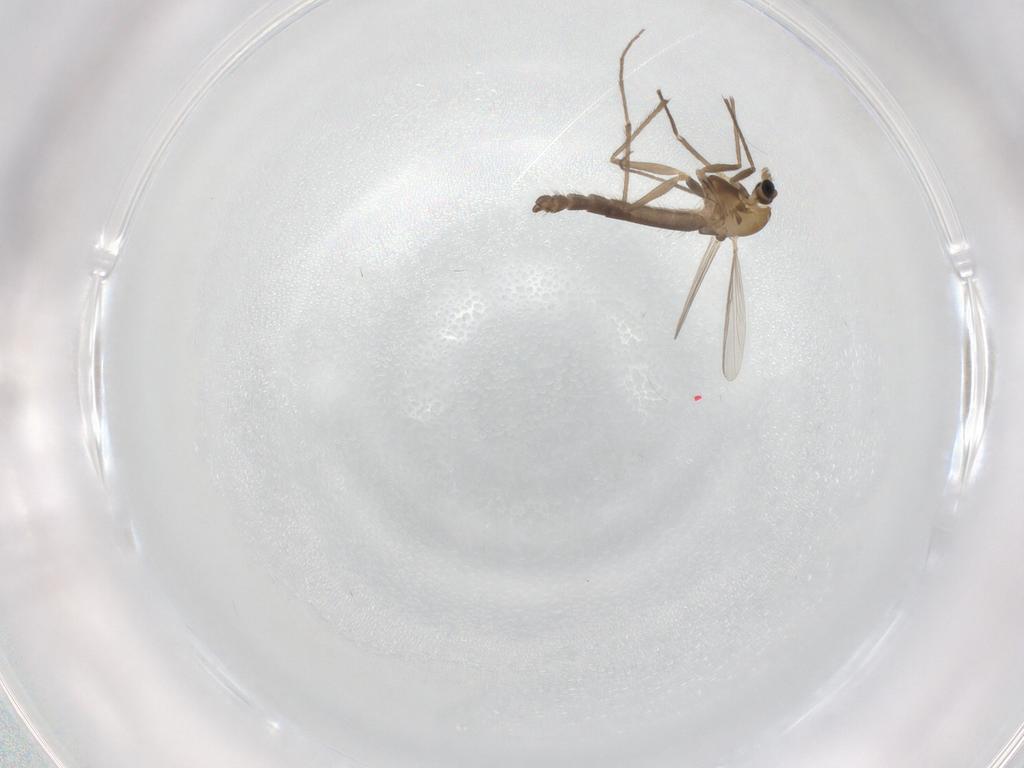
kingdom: Animalia
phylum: Arthropoda
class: Insecta
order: Diptera
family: Chironomidae
